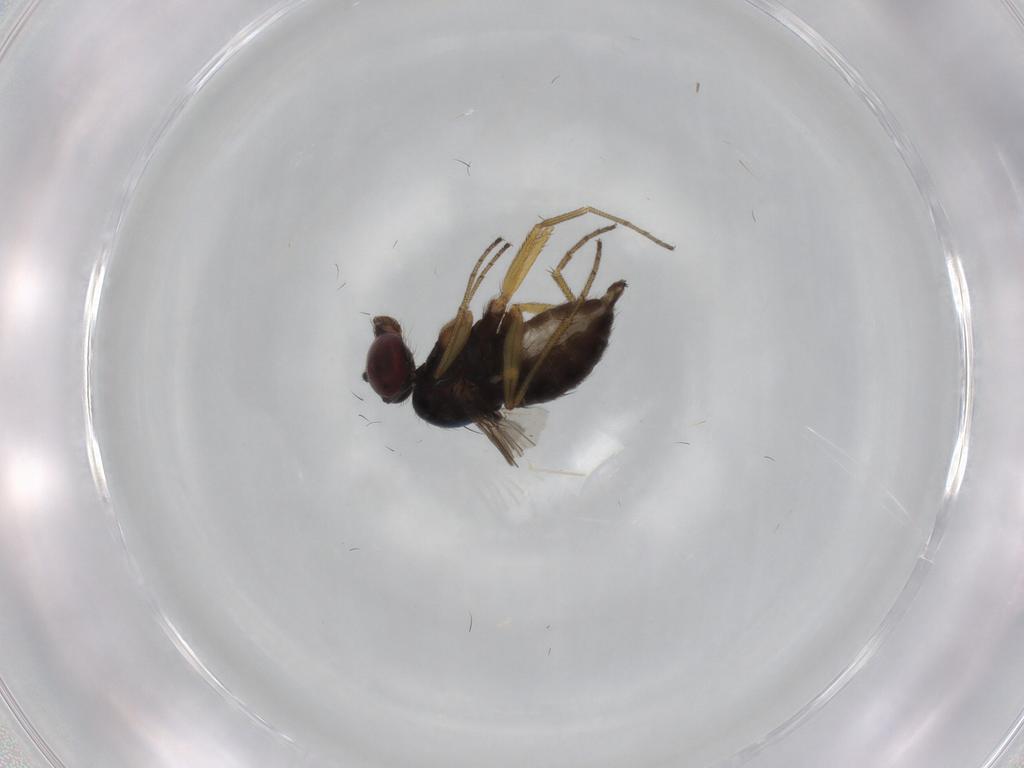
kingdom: Animalia
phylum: Arthropoda
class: Insecta
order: Diptera
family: Dolichopodidae
